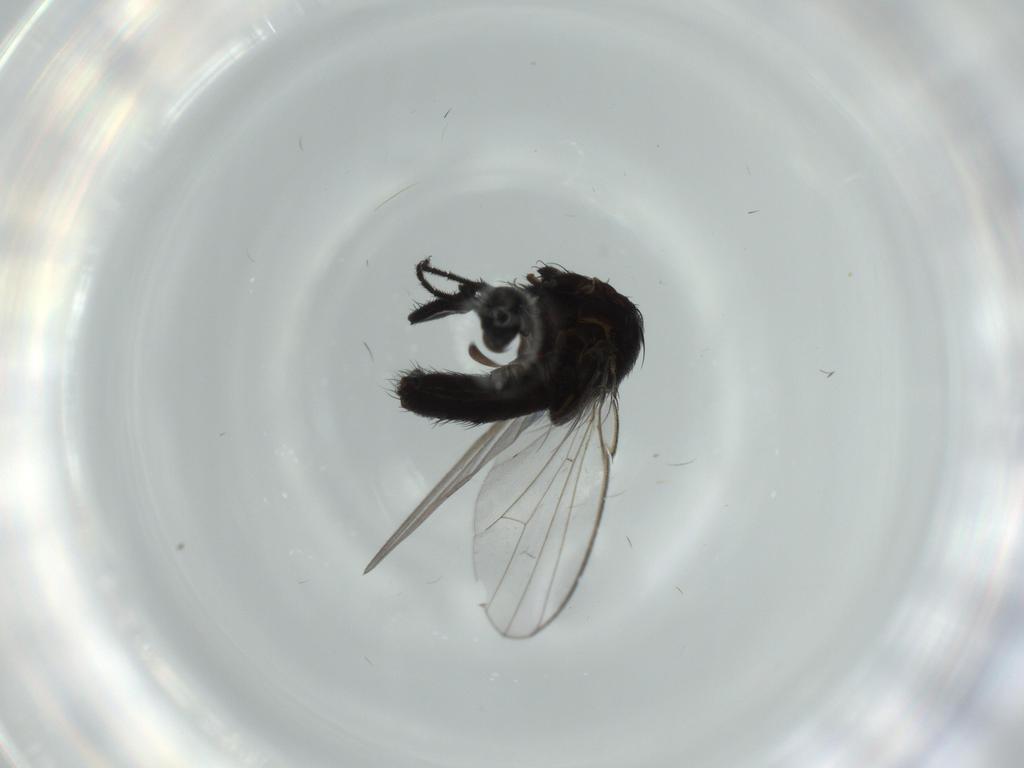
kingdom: Animalia
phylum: Arthropoda
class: Insecta
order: Diptera
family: Milichiidae
